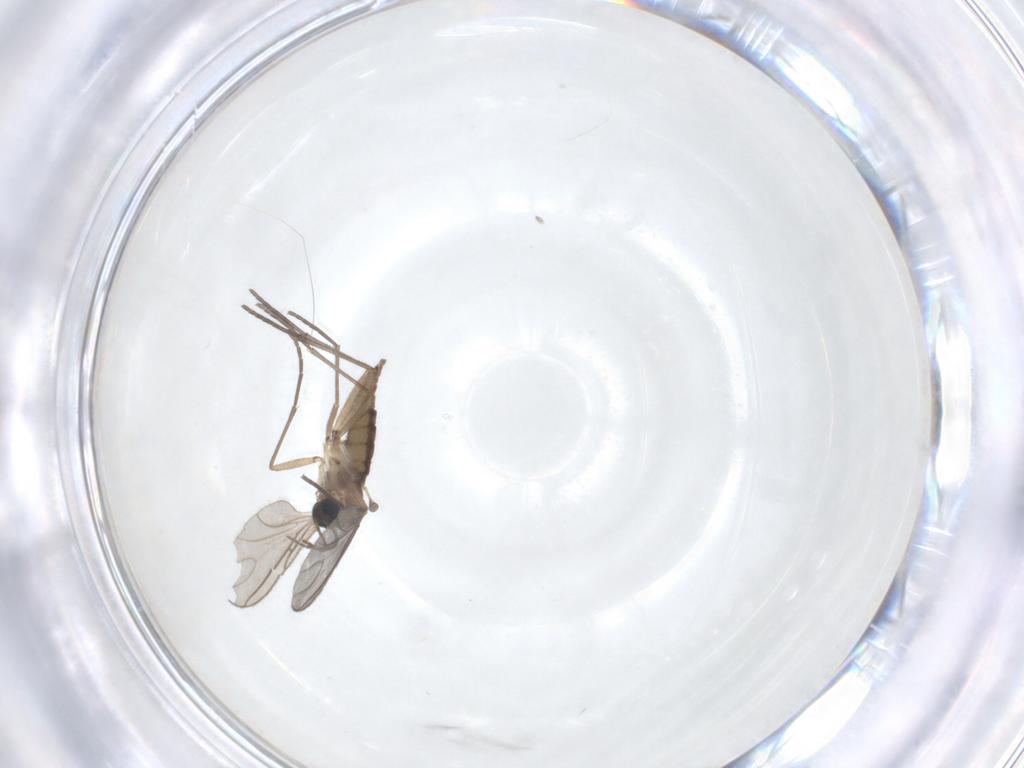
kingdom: Animalia
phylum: Arthropoda
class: Insecta
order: Diptera
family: Sciaridae
